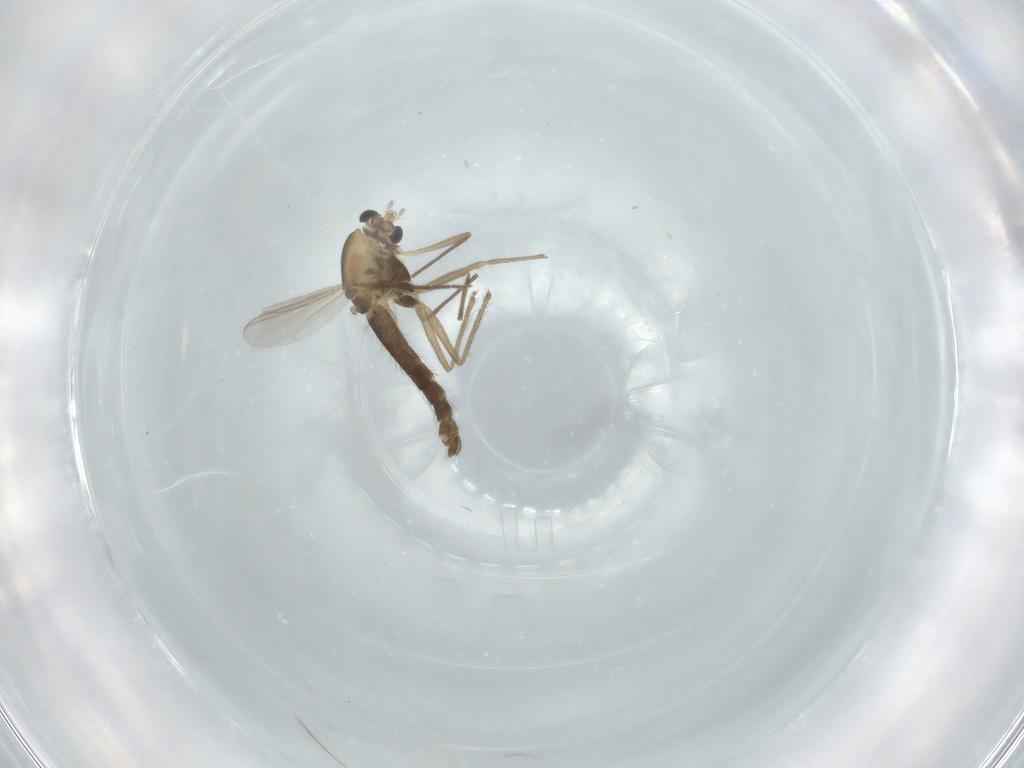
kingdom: Animalia
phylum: Arthropoda
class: Insecta
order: Diptera
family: Chironomidae
